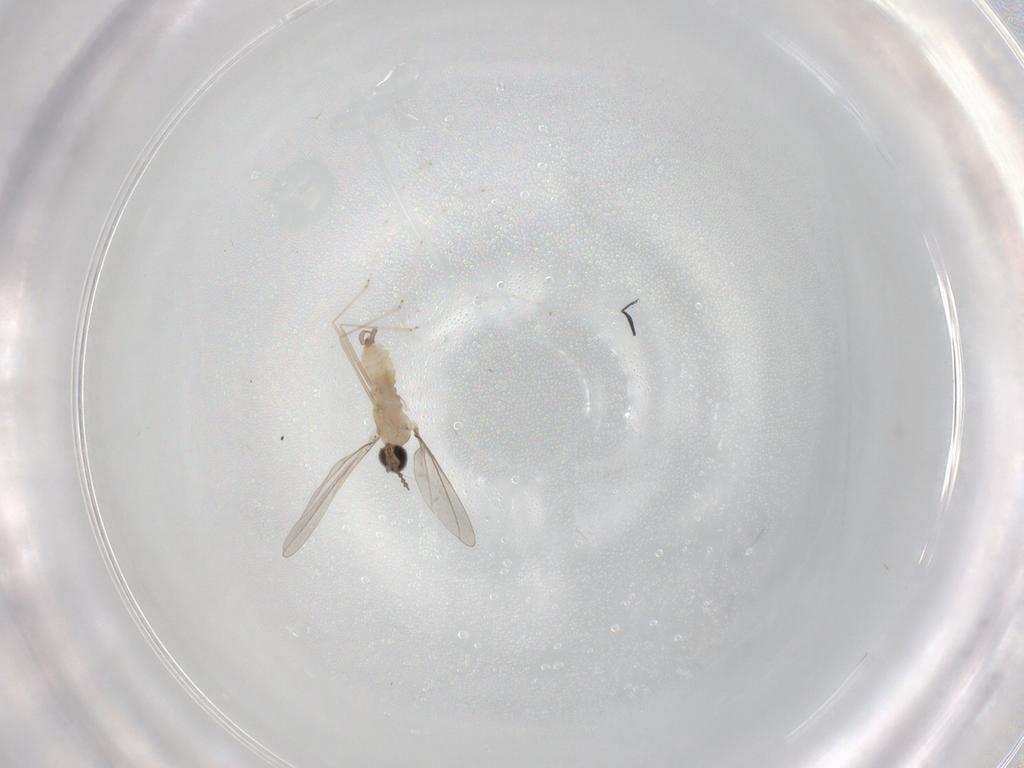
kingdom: Animalia
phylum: Arthropoda
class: Insecta
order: Diptera
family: Cecidomyiidae
